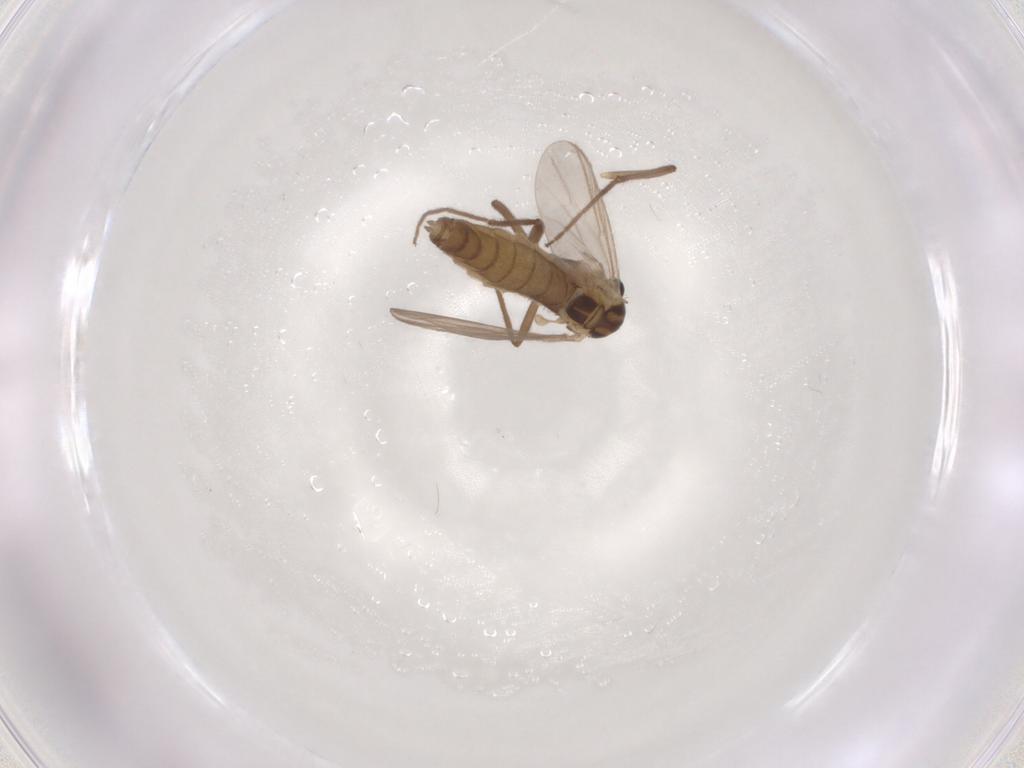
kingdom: Animalia
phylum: Arthropoda
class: Insecta
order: Diptera
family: Chironomidae
